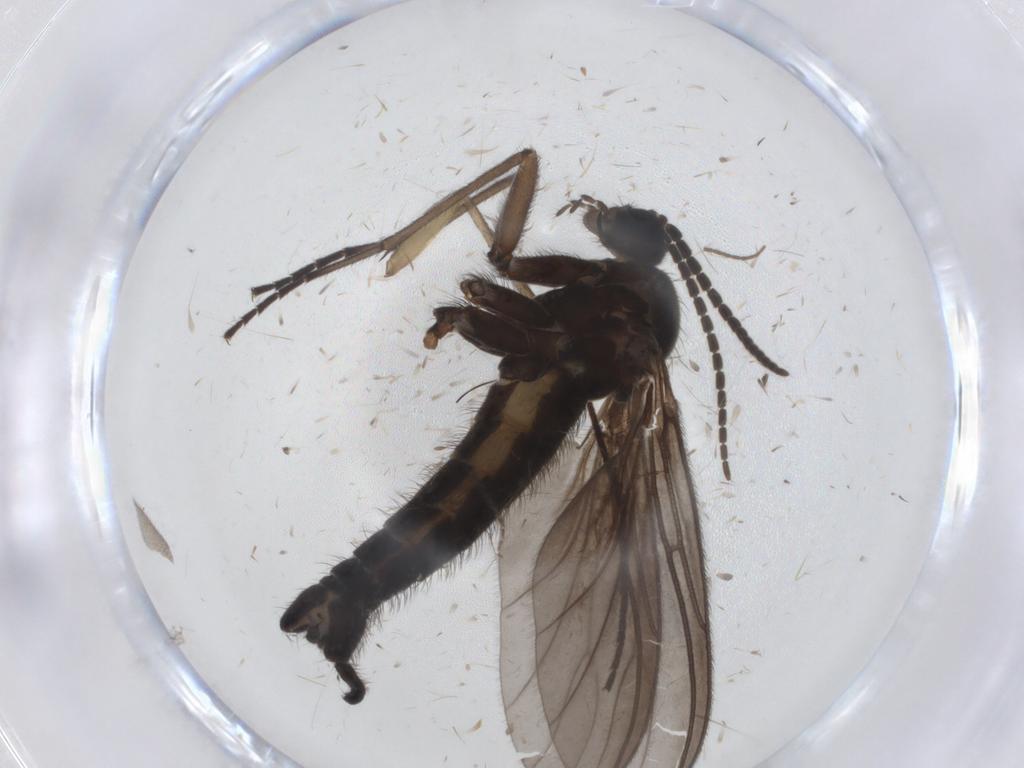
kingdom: Animalia
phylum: Arthropoda
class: Insecta
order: Diptera
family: Sciaridae
